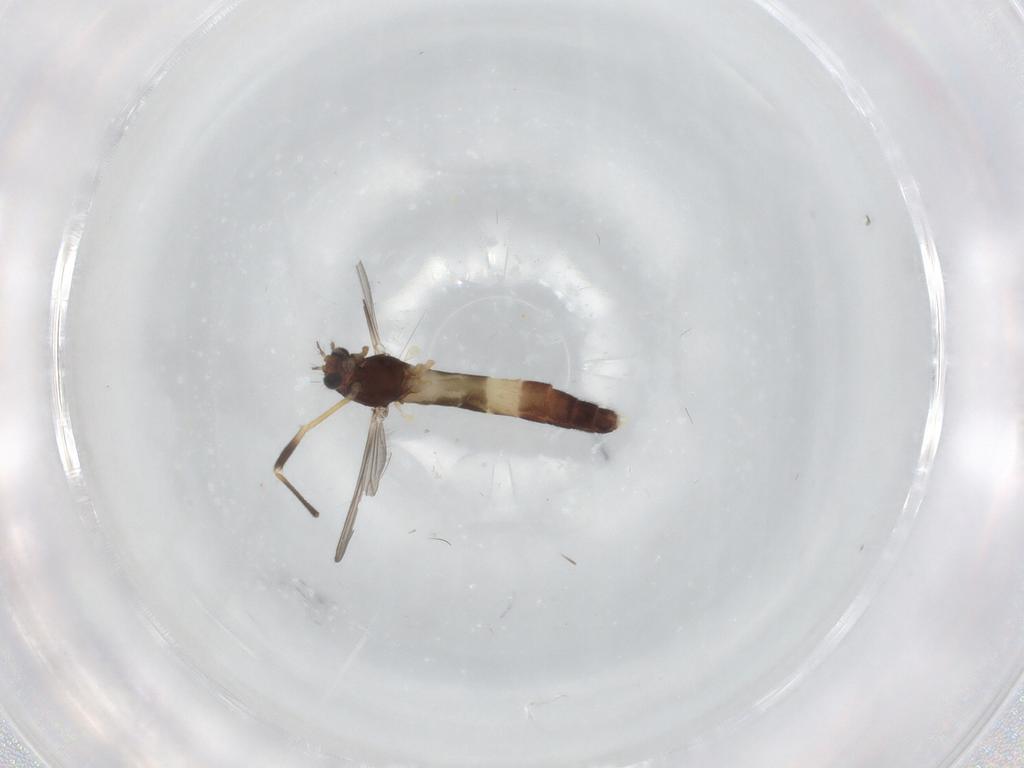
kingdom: Animalia
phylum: Arthropoda
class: Insecta
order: Diptera
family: Chironomidae
